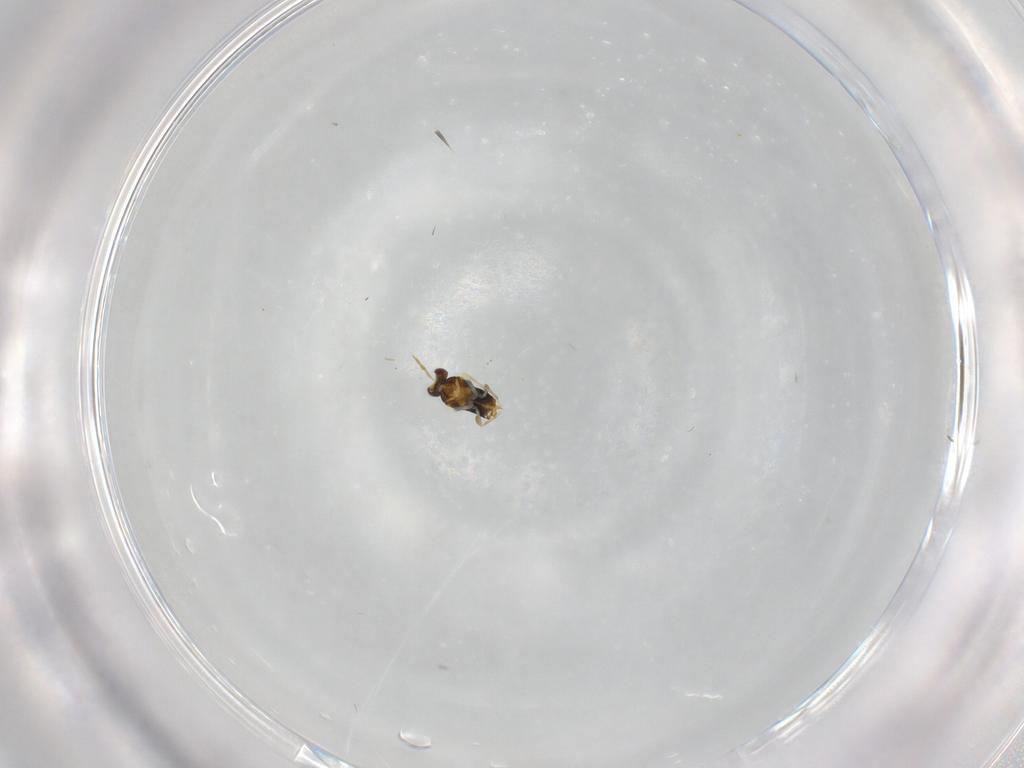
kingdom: Animalia
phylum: Arthropoda
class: Insecta
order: Hymenoptera
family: Aphelinidae
